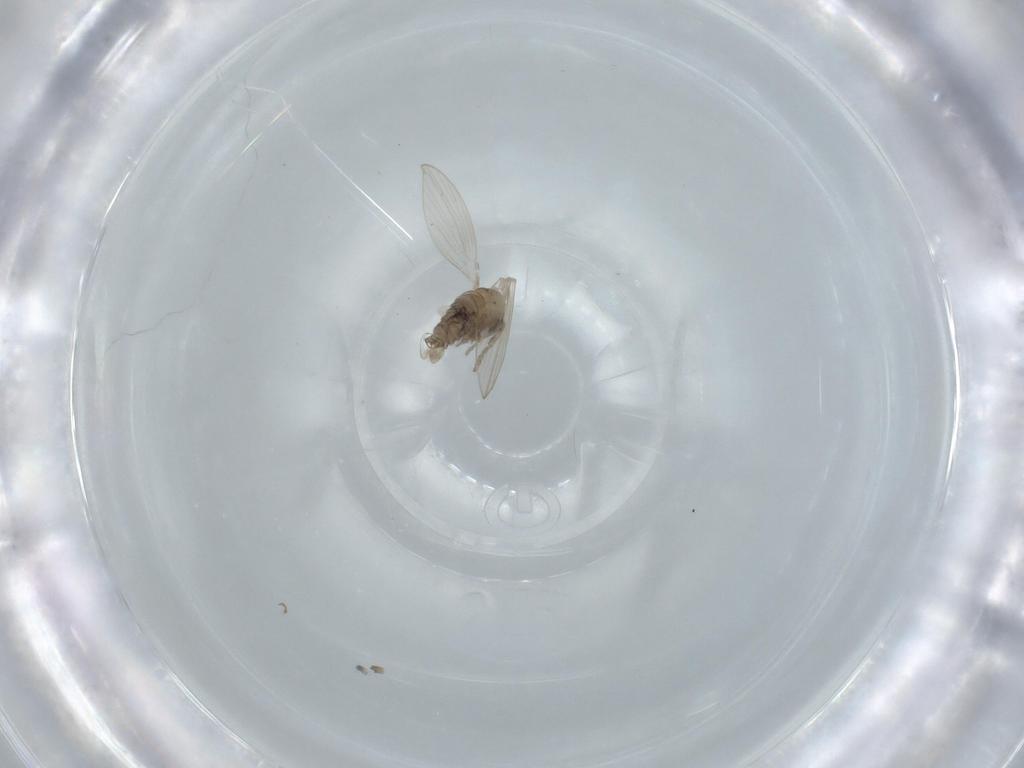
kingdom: Animalia
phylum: Arthropoda
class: Insecta
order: Diptera
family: Psychodidae
